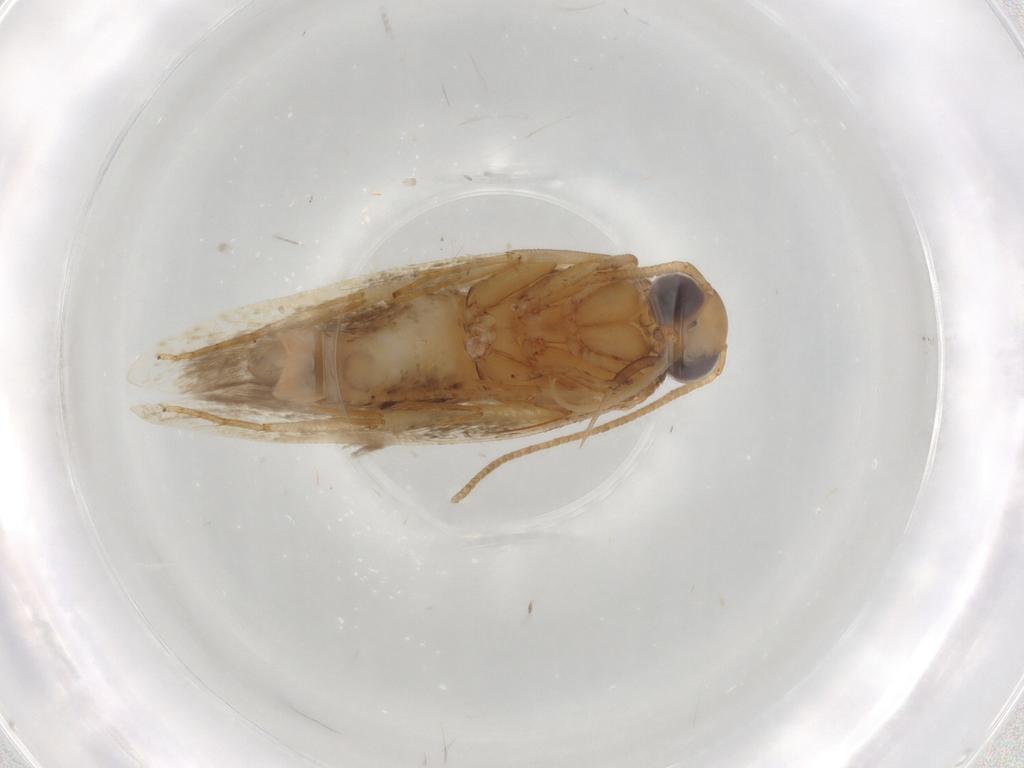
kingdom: Animalia
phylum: Arthropoda
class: Insecta
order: Lepidoptera
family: Gelechiidae
